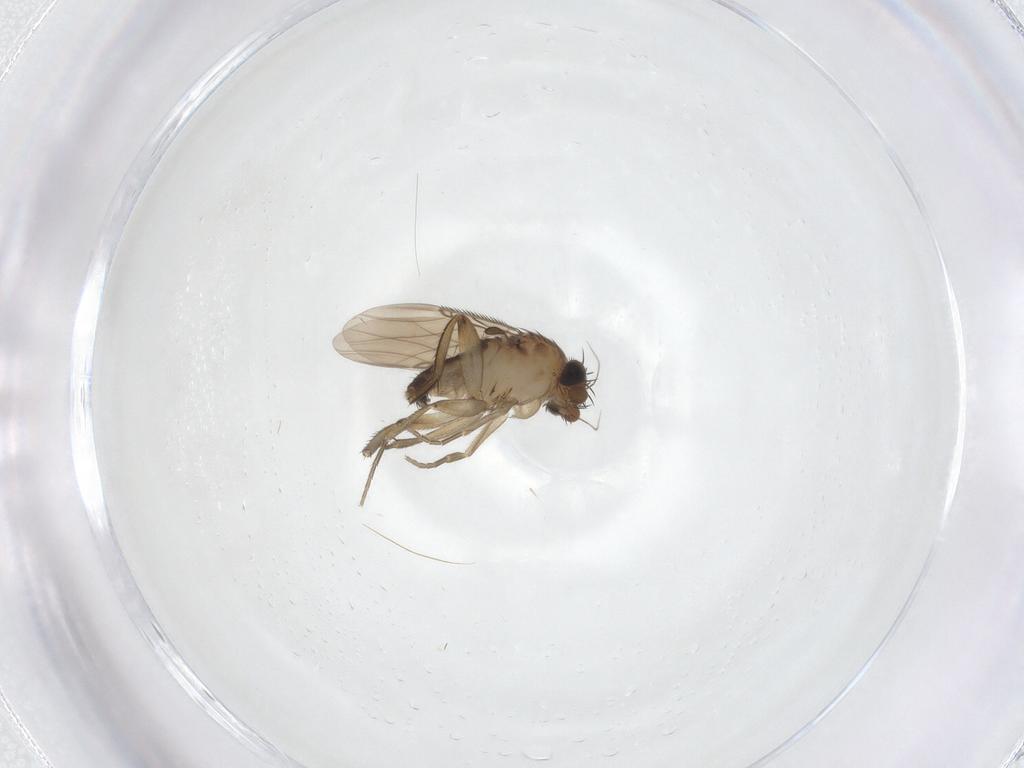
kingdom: Animalia
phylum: Arthropoda
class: Insecta
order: Diptera
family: Phoridae
